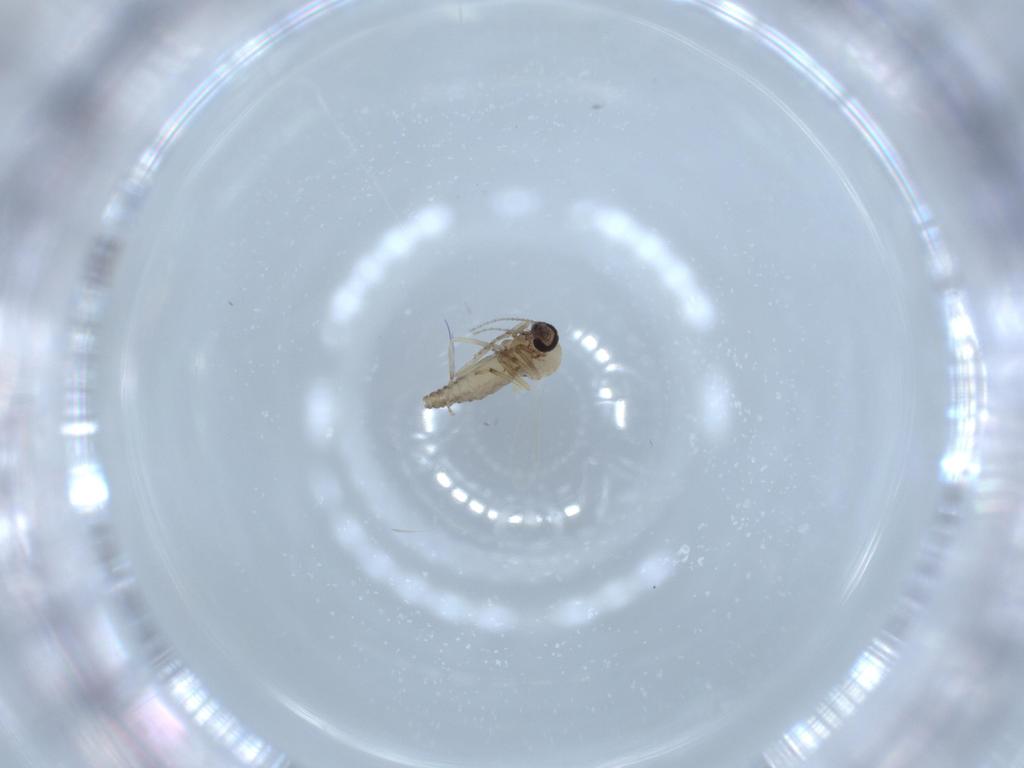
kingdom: Animalia
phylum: Arthropoda
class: Insecta
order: Diptera
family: Ceratopogonidae
